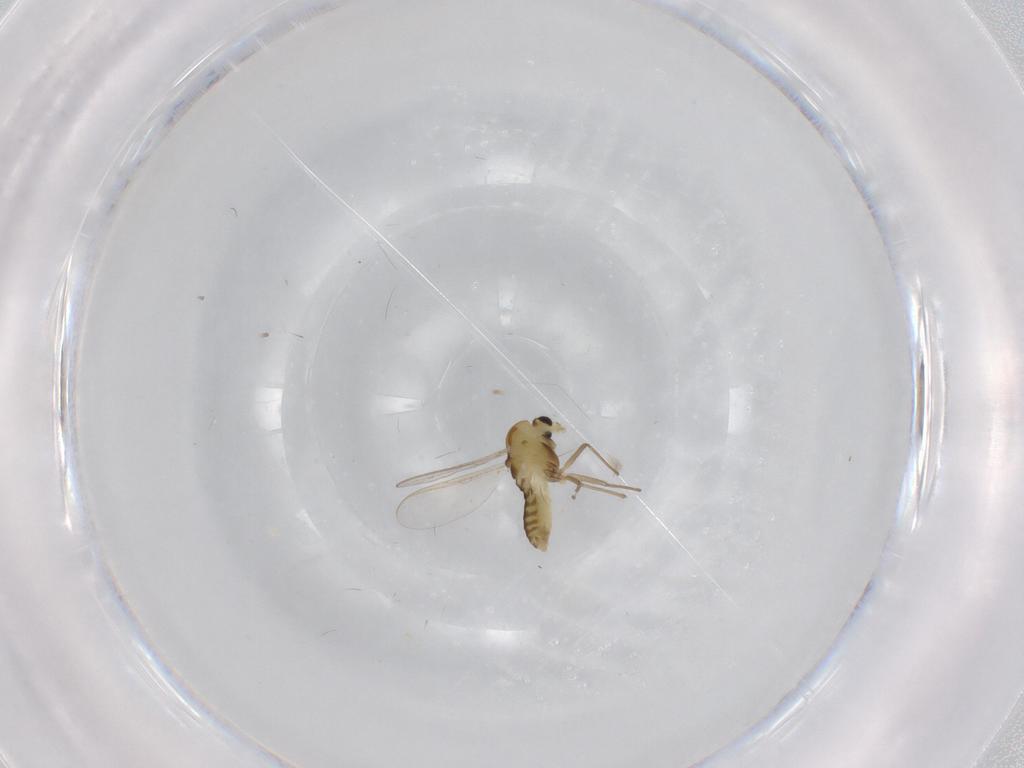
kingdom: Animalia
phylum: Arthropoda
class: Insecta
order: Diptera
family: Chironomidae
